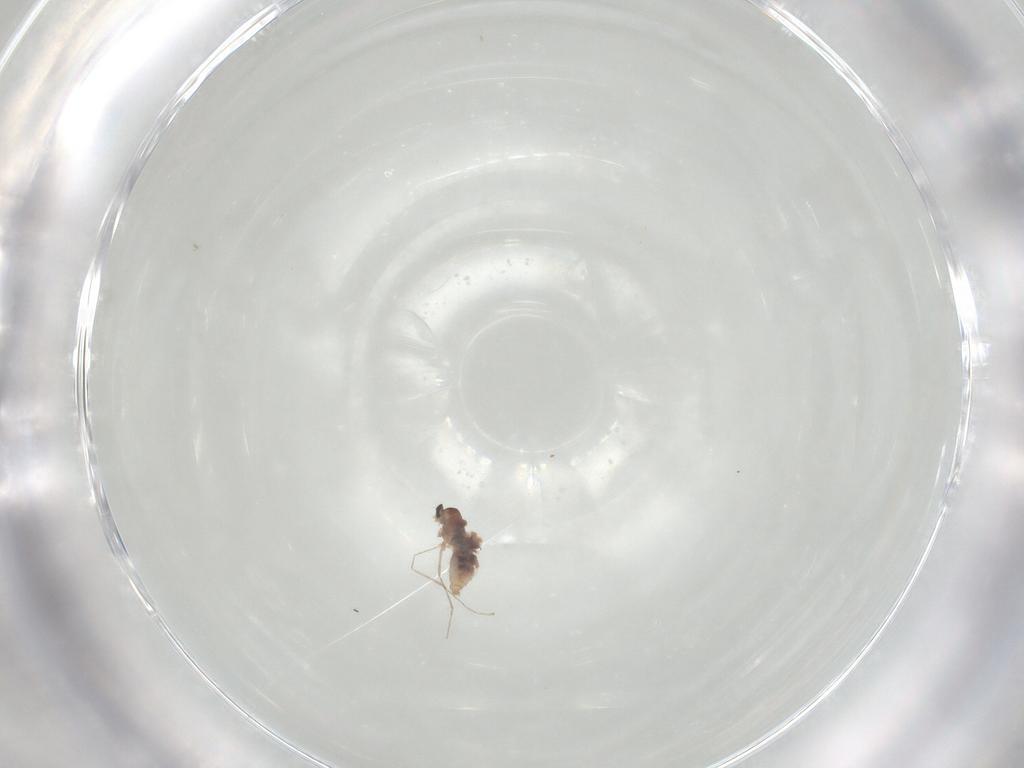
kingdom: Animalia
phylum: Arthropoda
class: Insecta
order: Diptera
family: Cecidomyiidae
